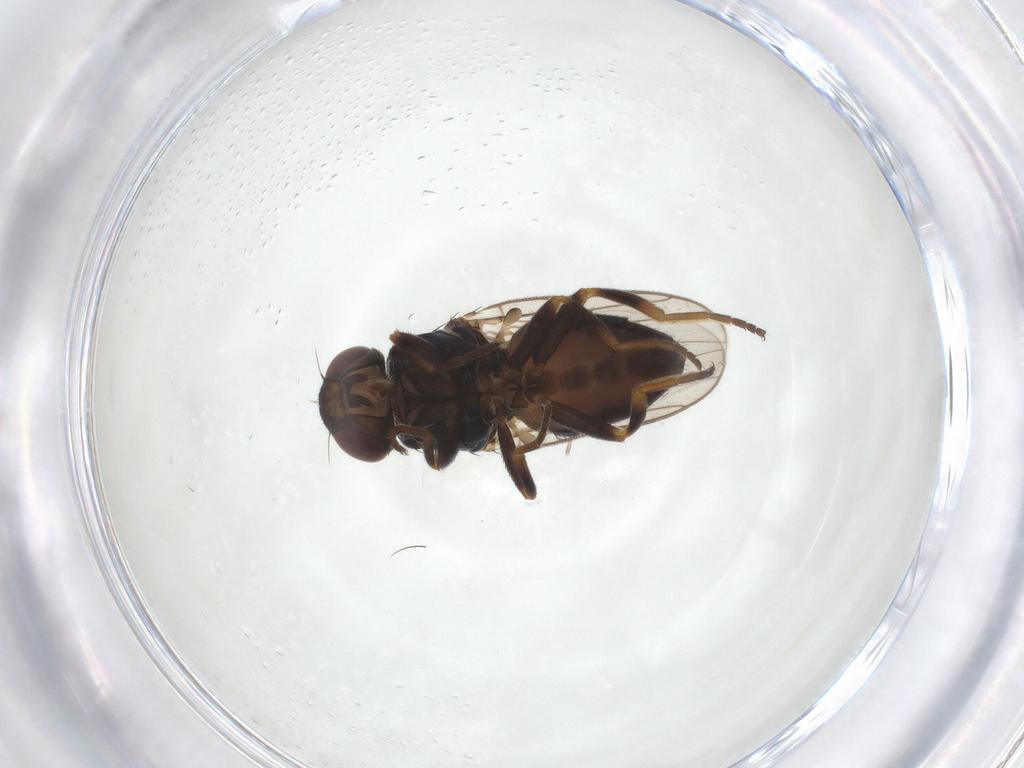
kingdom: Animalia
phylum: Arthropoda
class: Insecta
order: Diptera
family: Chloropidae
